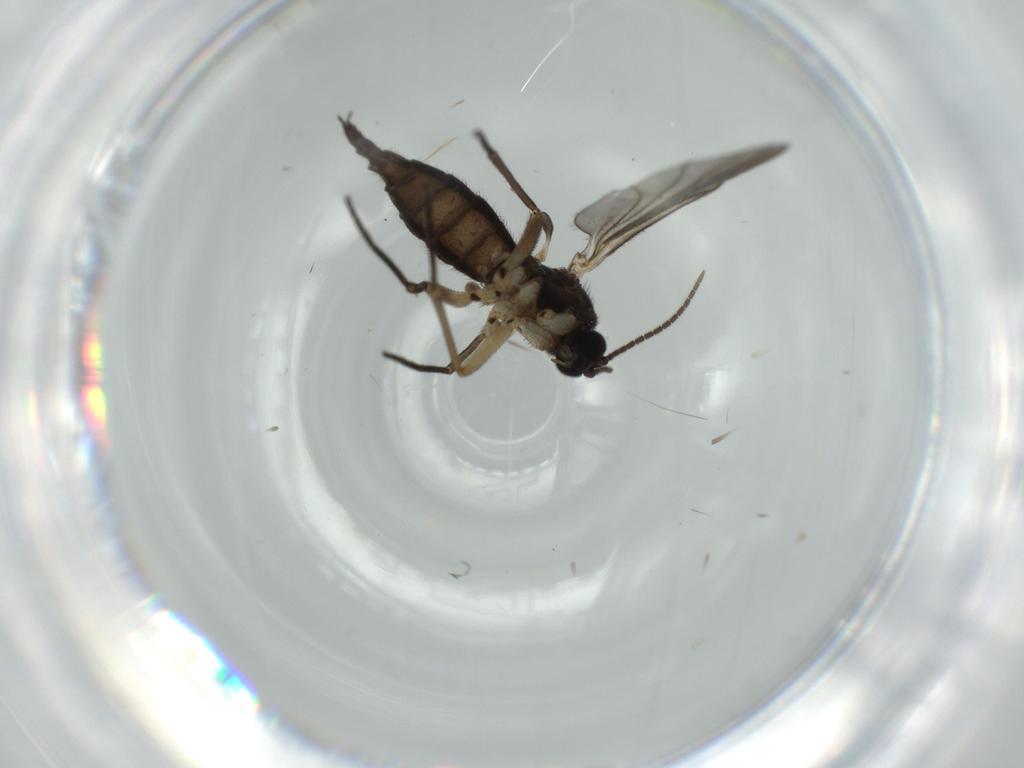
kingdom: Animalia
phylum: Arthropoda
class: Insecta
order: Diptera
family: Sciaridae
